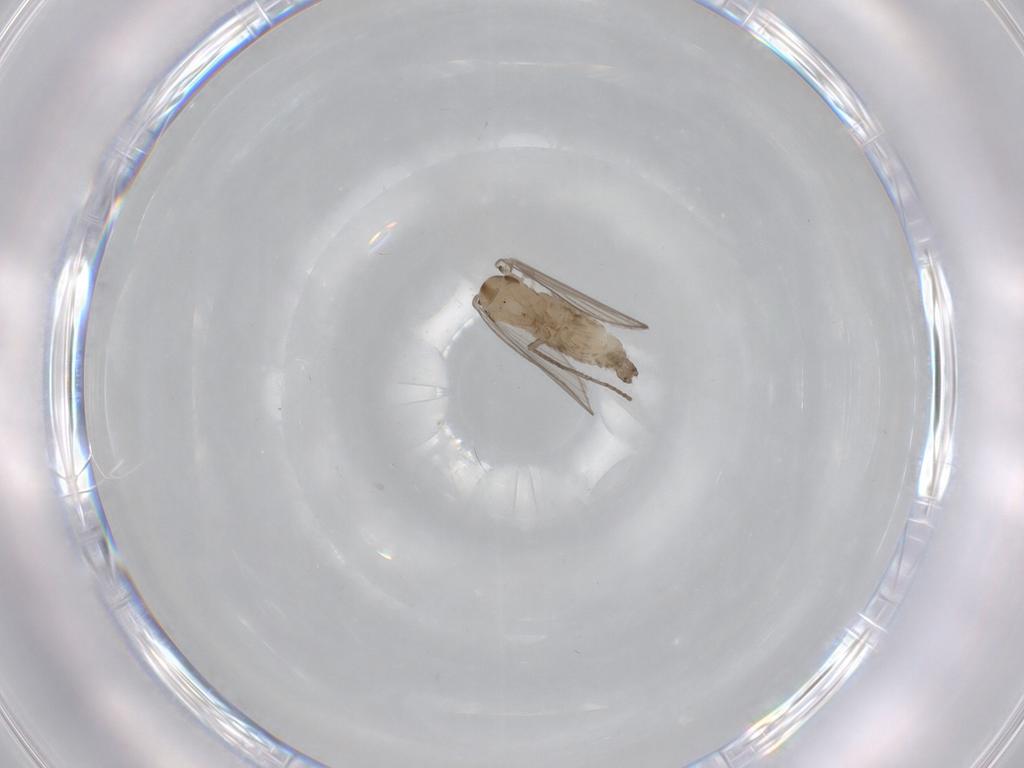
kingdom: Animalia
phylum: Arthropoda
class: Insecta
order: Diptera
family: Psychodidae
